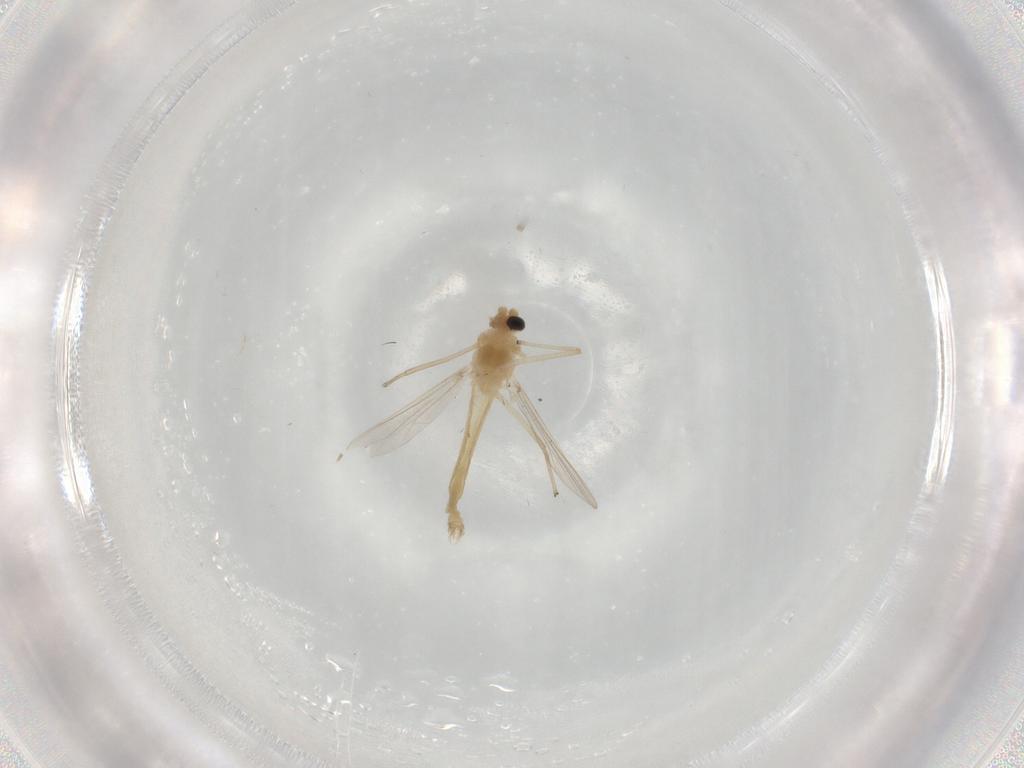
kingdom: Animalia
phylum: Arthropoda
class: Insecta
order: Diptera
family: Chironomidae
